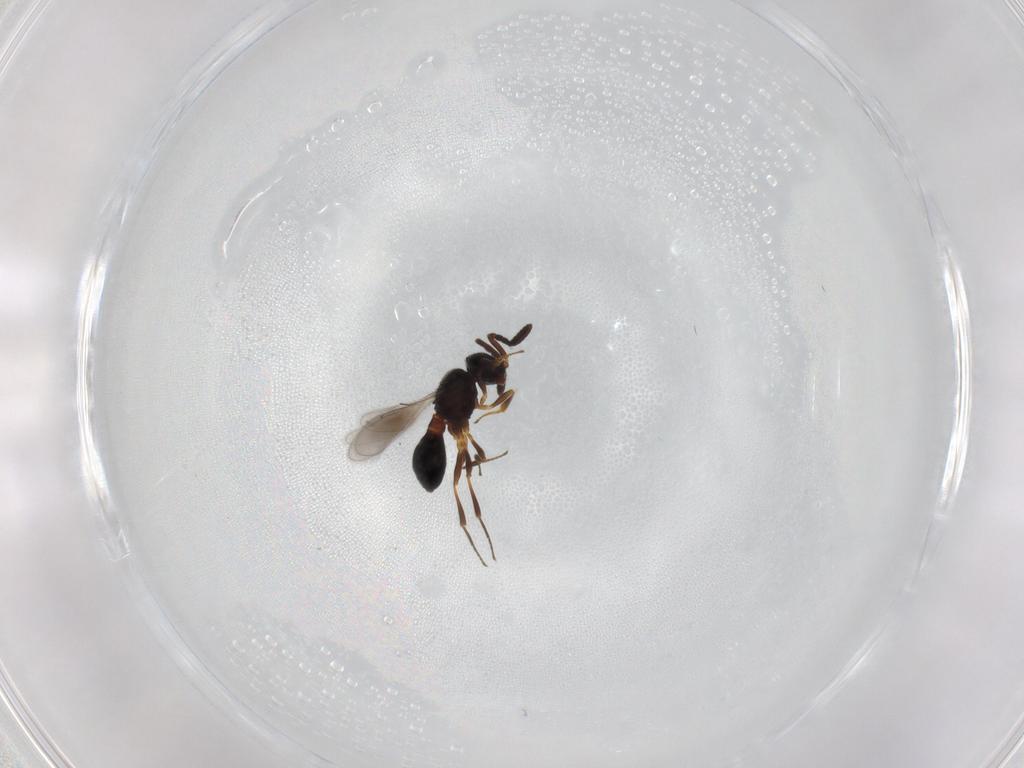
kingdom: Animalia
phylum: Arthropoda
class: Insecta
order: Hymenoptera
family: Scelionidae
